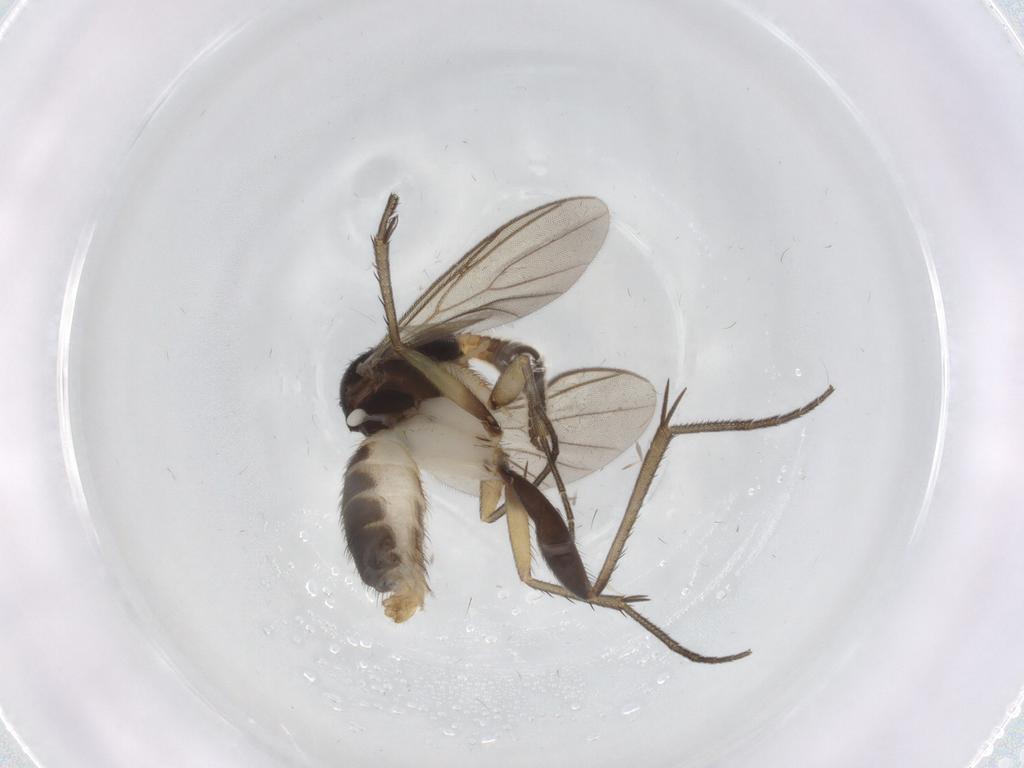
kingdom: Animalia
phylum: Arthropoda
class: Insecta
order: Diptera
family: Mycetophilidae
